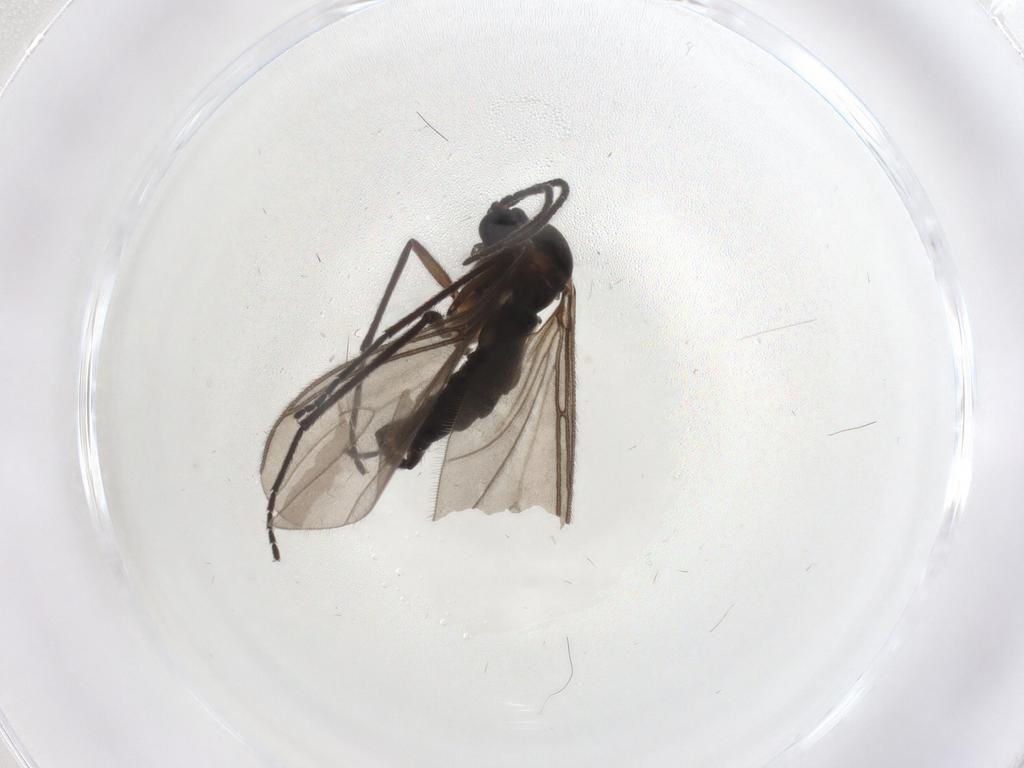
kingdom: Animalia
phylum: Arthropoda
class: Insecta
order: Diptera
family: Sciaridae
